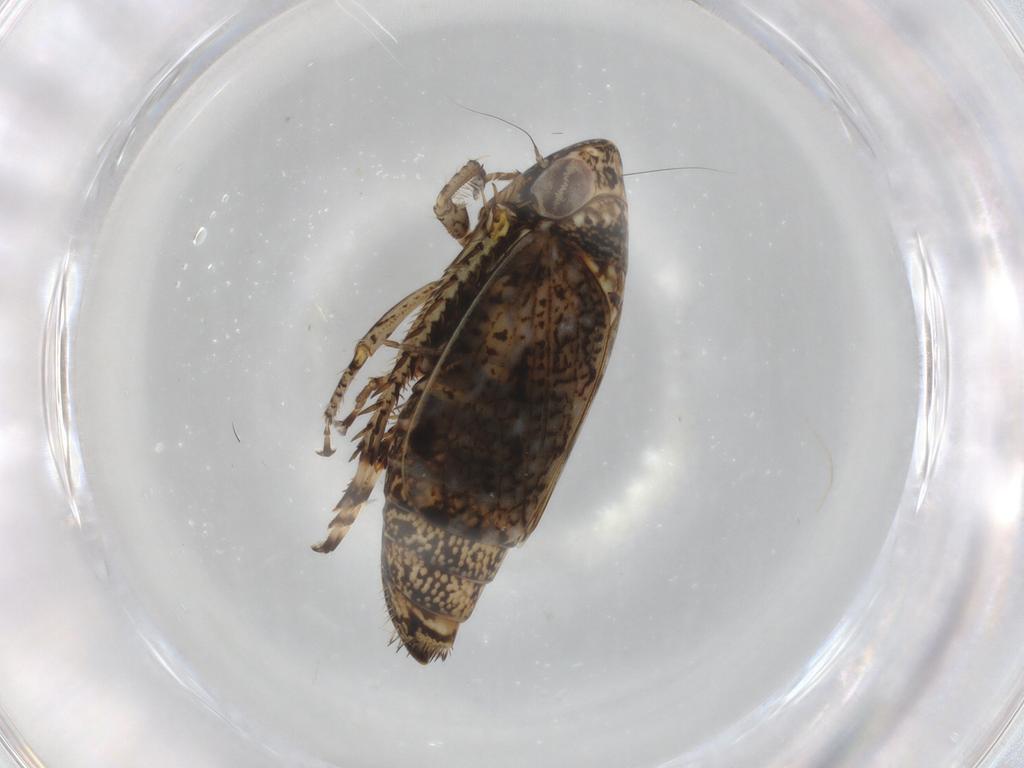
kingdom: Animalia
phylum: Arthropoda
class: Insecta
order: Hemiptera
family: Cicadellidae
